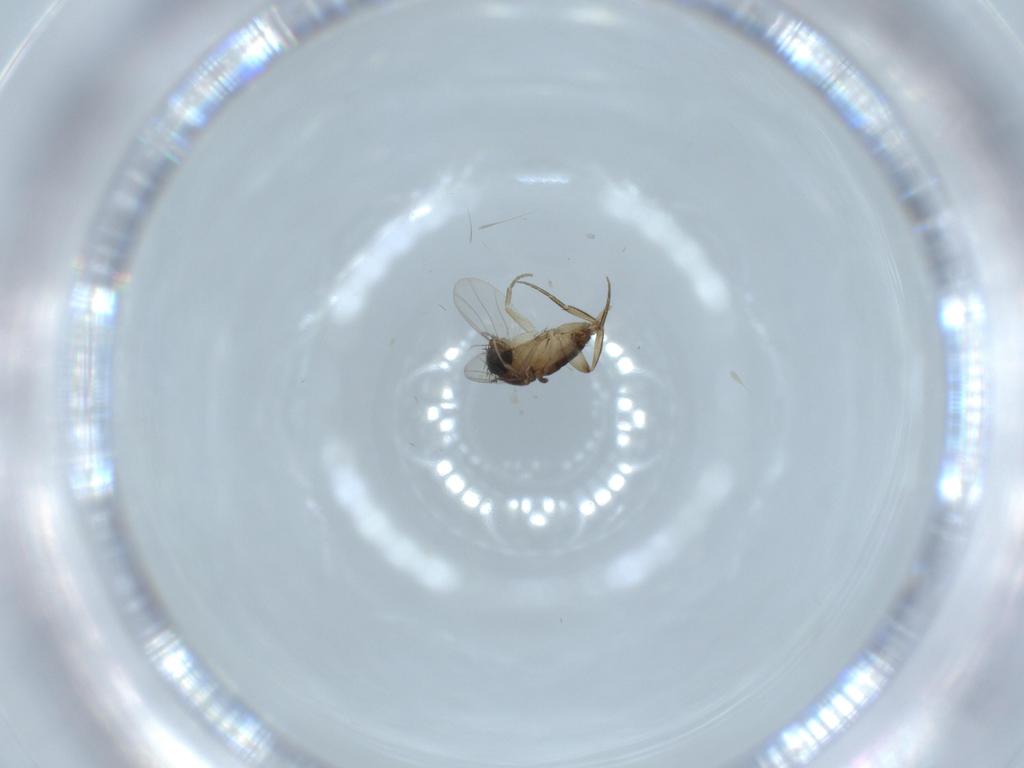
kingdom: Animalia
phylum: Arthropoda
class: Insecta
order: Diptera
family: Phoridae
